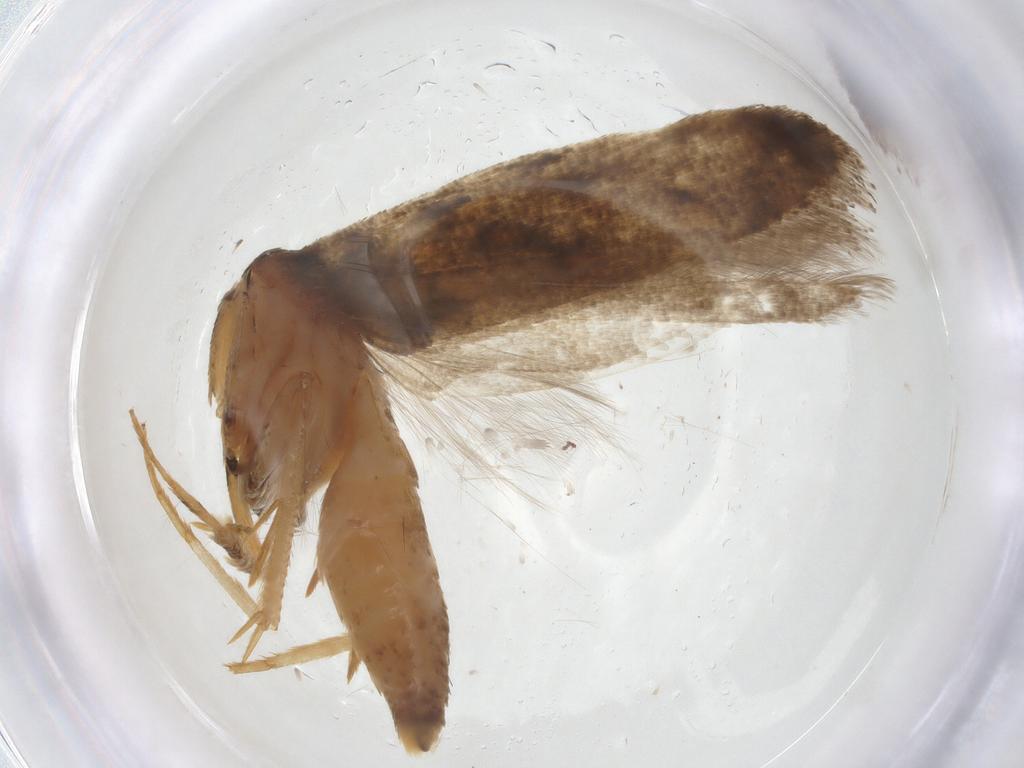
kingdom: Animalia
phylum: Arthropoda
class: Insecta
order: Lepidoptera
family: Gelechiidae
